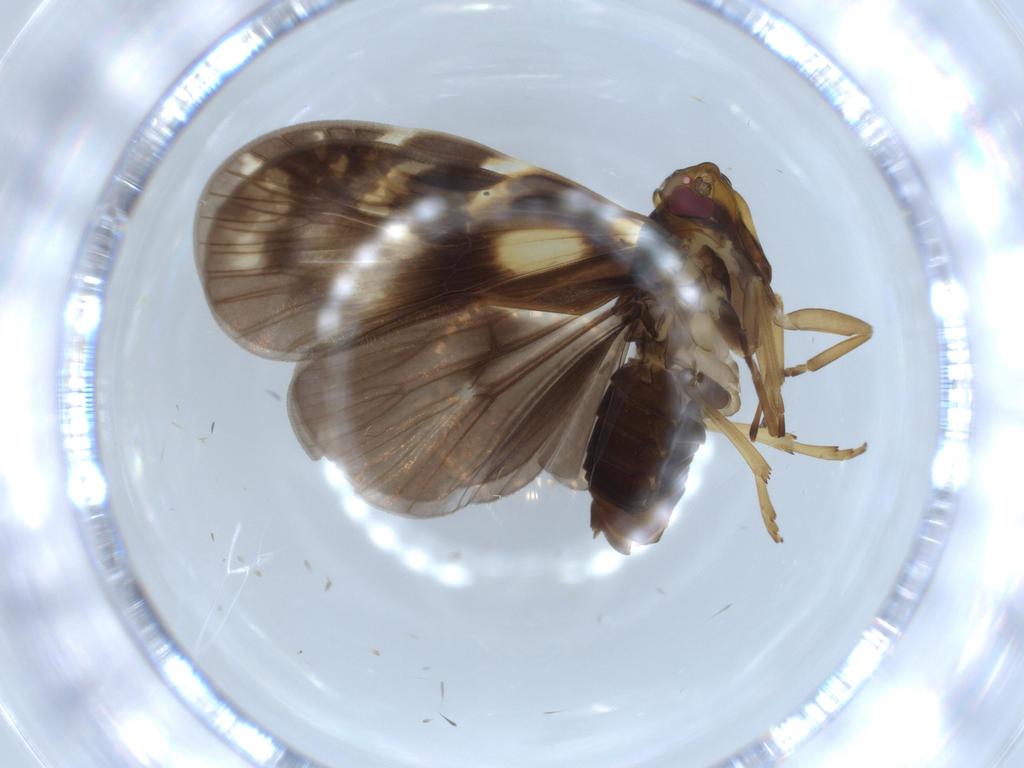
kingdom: Animalia
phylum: Arthropoda
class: Insecta
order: Hemiptera
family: Cixiidae
